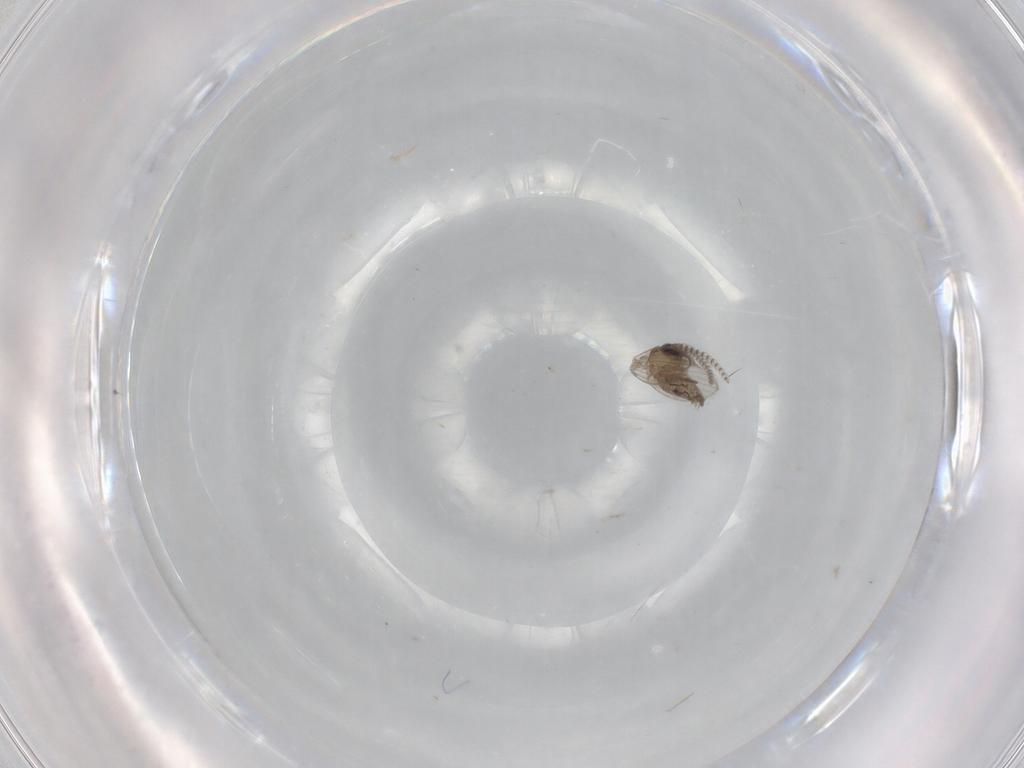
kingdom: Animalia
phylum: Arthropoda
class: Insecta
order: Diptera
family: Psychodidae
